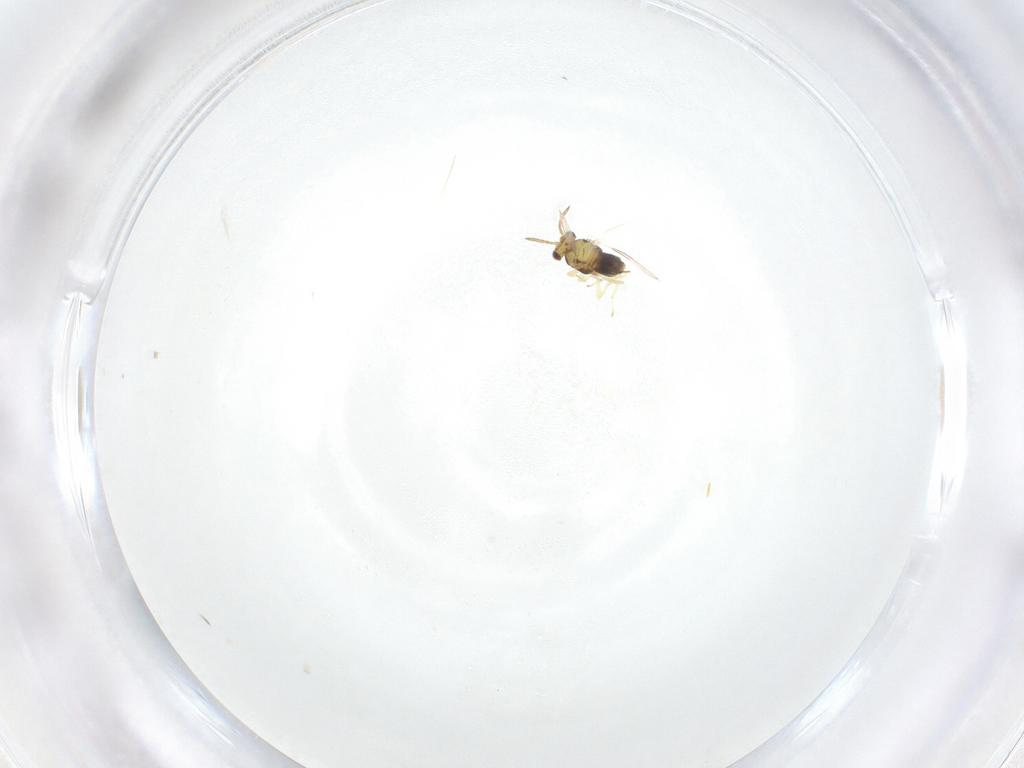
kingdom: Animalia
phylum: Arthropoda
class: Insecta
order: Hymenoptera
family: Aphelinidae
